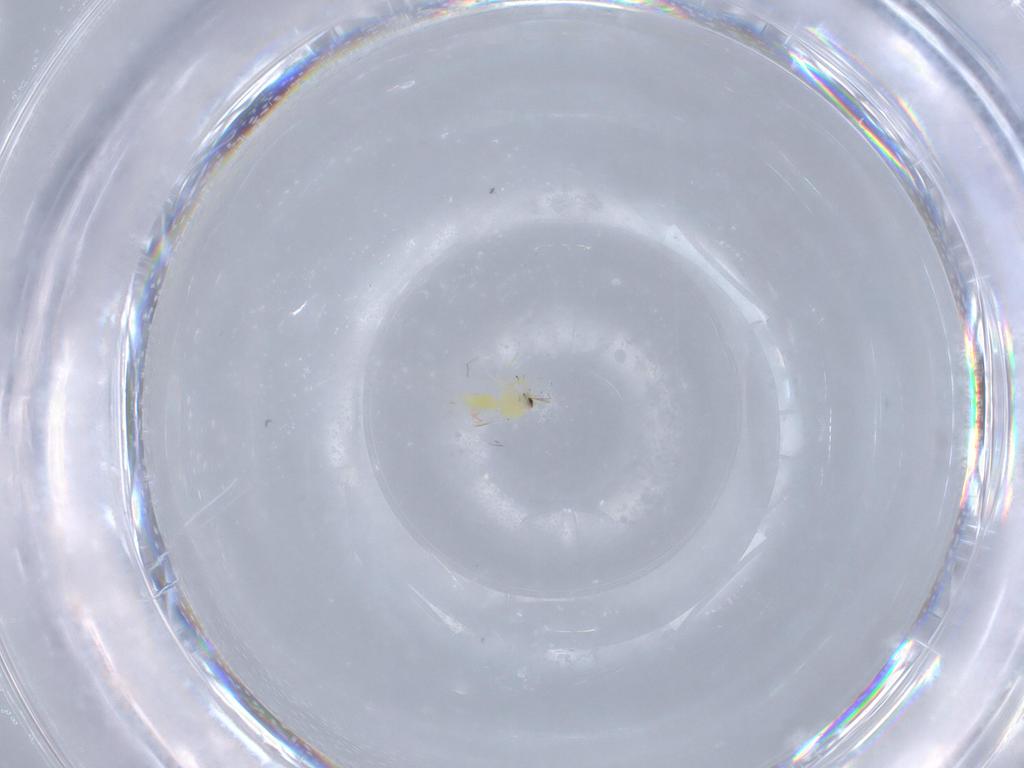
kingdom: Animalia
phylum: Arthropoda
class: Insecta
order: Hemiptera
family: Aleyrodidae
